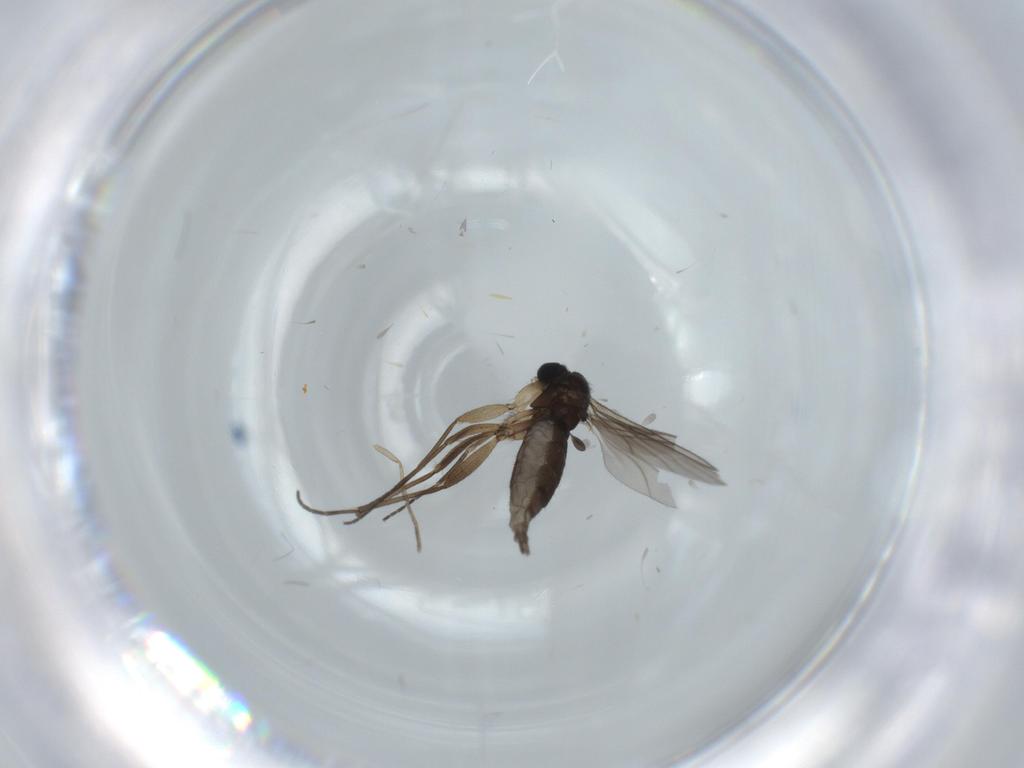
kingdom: Animalia
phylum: Arthropoda
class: Insecta
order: Diptera
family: Sciaridae
